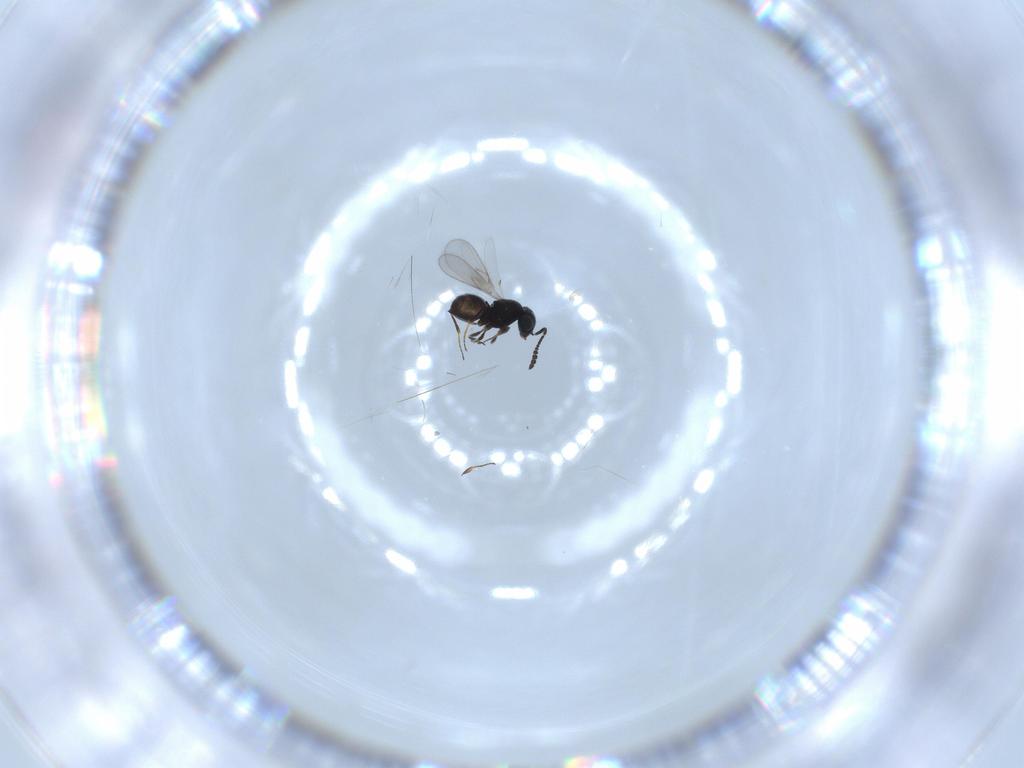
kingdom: Animalia
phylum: Arthropoda
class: Insecta
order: Hymenoptera
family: Scelionidae
